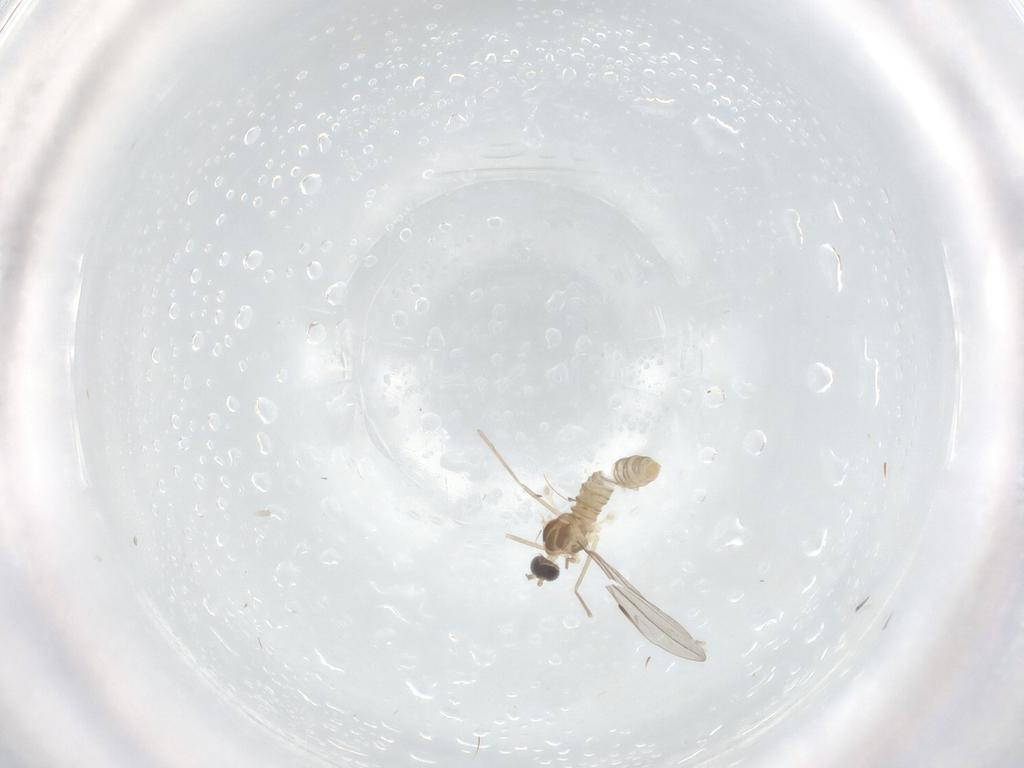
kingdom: Animalia
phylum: Arthropoda
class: Insecta
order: Diptera
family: Cecidomyiidae
